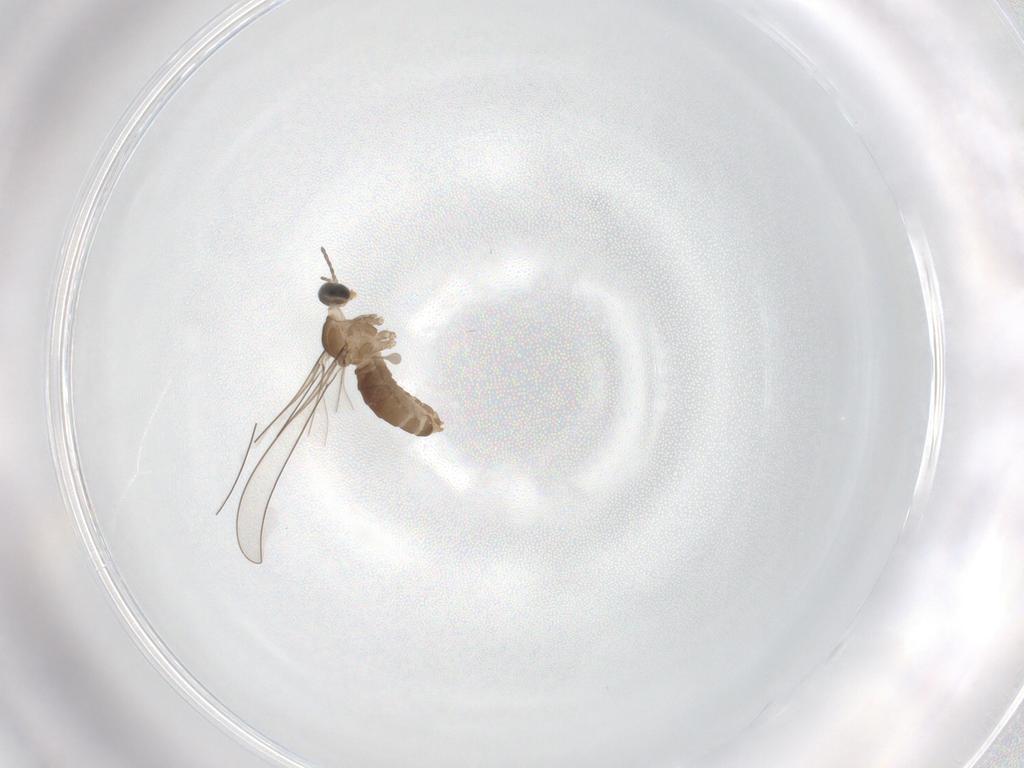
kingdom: Animalia
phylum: Arthropoda
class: Insecta
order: Diptera
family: Cecidomyiidae
